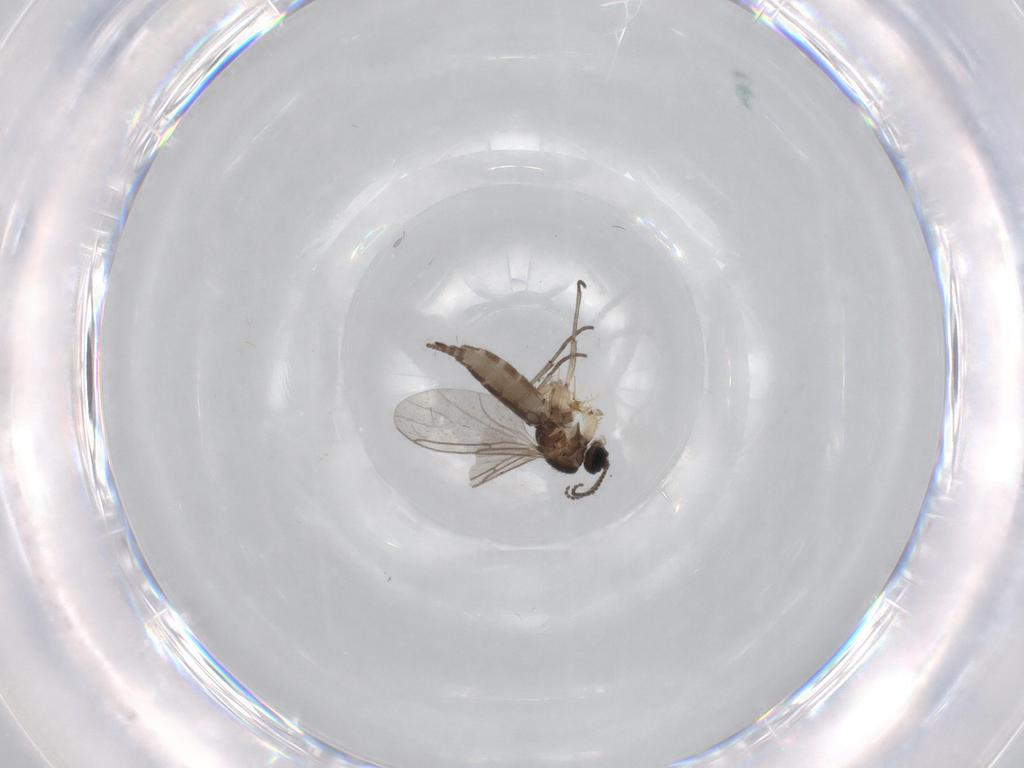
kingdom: Animalia
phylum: Arthropoda
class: Insecta
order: Diptera
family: Sciaridae
